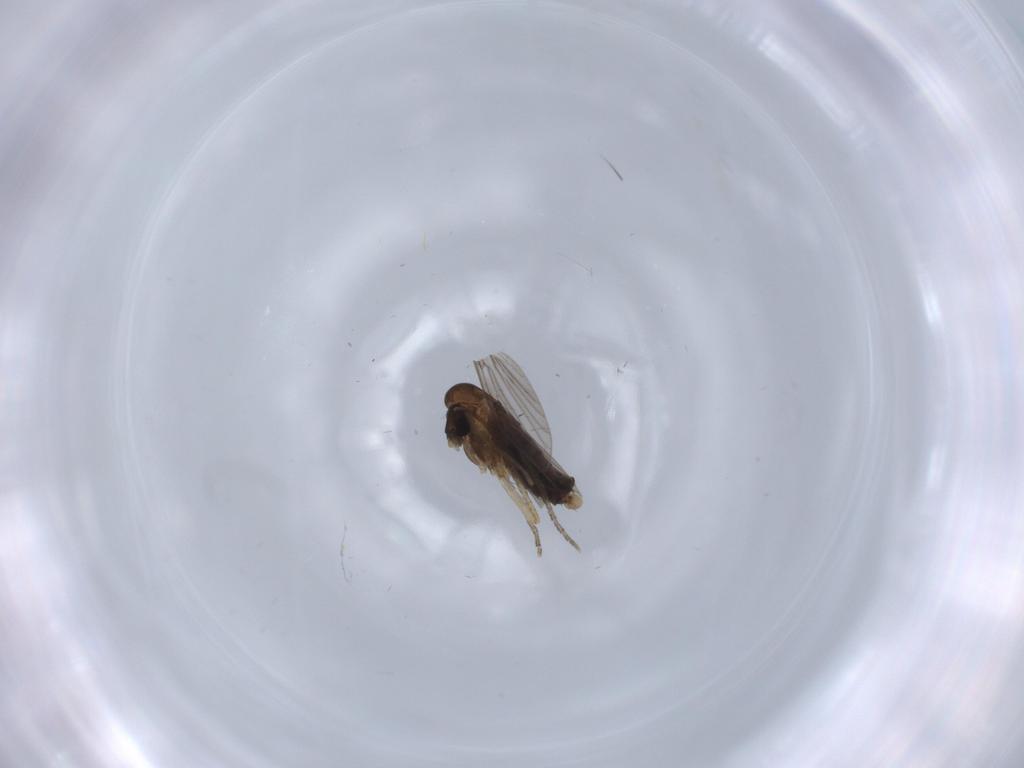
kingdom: Animalia
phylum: Arthropoda
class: Insecta
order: Diptera
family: Psychodidae
